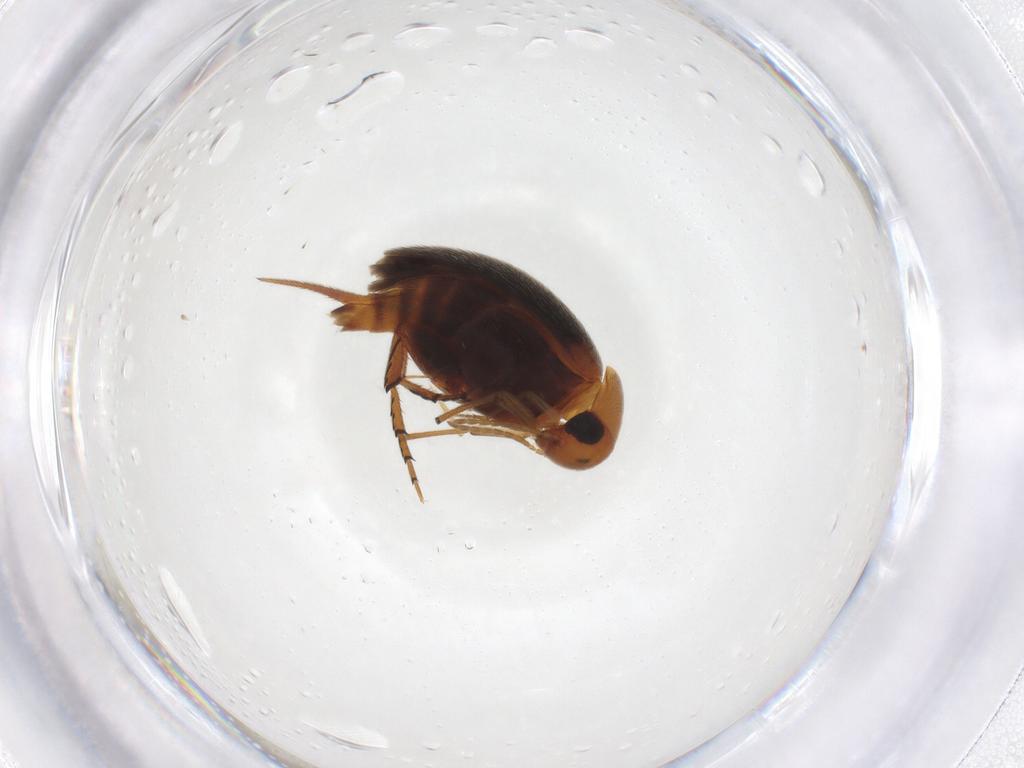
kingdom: Animalia
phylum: Arthropoda
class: Insecta
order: Coleoptera
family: Mordellidae
